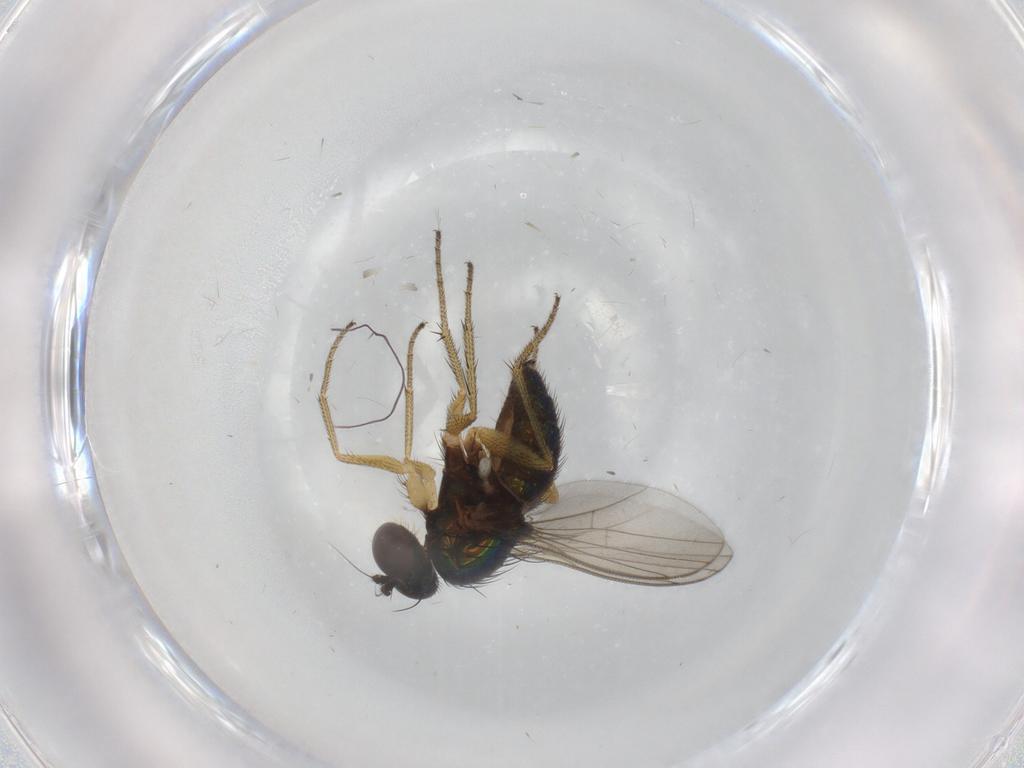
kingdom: Animalia
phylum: Arthropoda
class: Insecta
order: Diptera
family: Dolichopodidae
